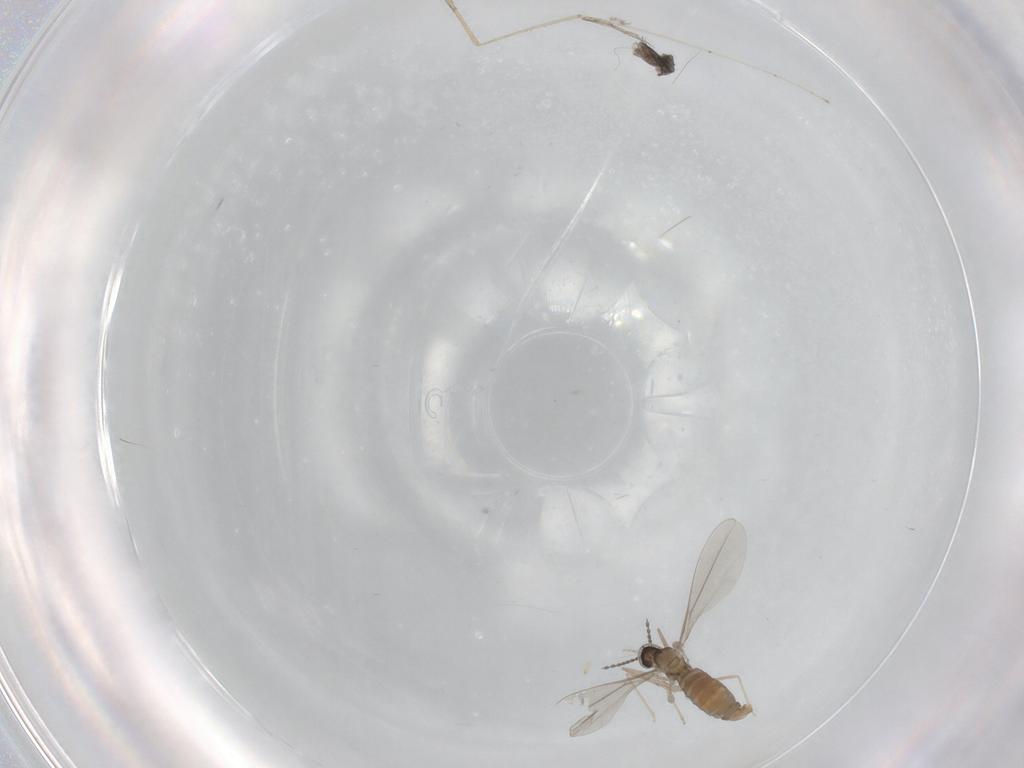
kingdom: Animalia
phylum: Arthropoda
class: Insecta
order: Diptera
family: Cecidomyiidae
